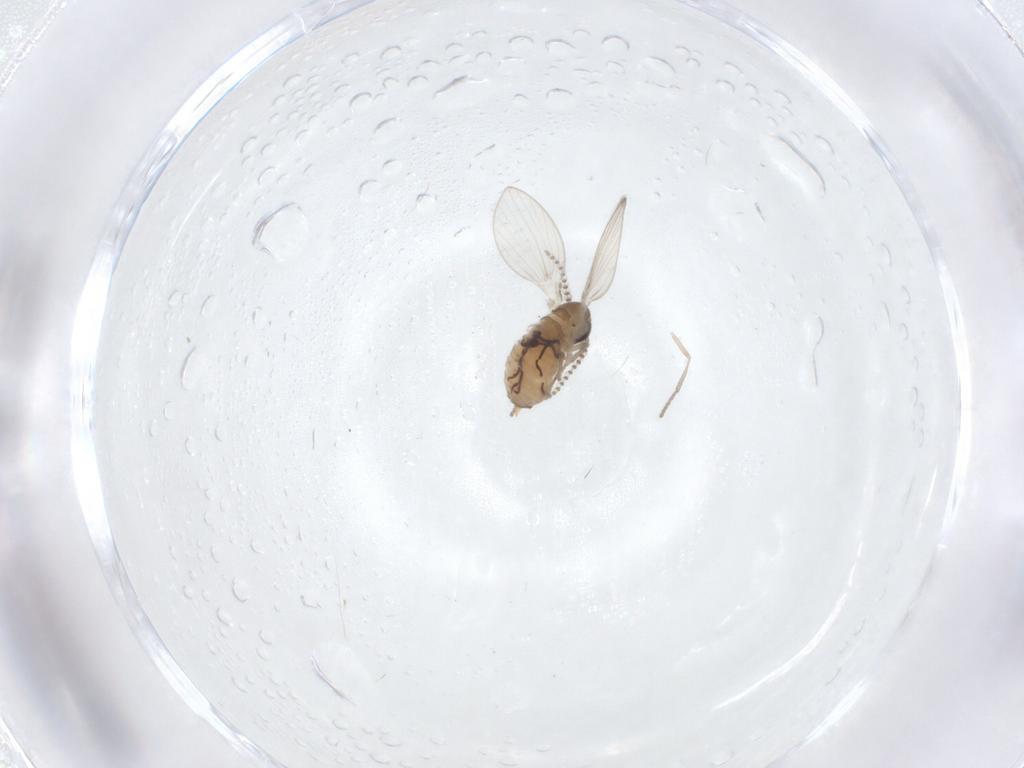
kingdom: Animalia
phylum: Arthropoda
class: Insecta
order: Diptera
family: Psychodidae
